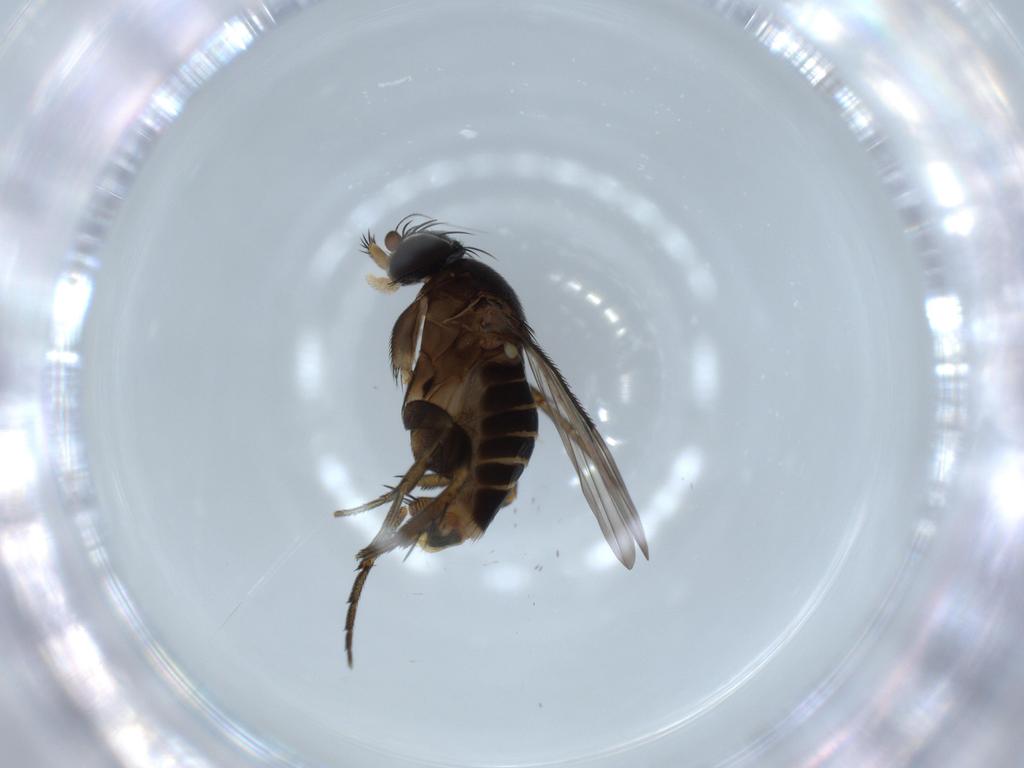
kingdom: Animalia
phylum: Arthropoda
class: Insecta
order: Diptera
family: Phoridae
